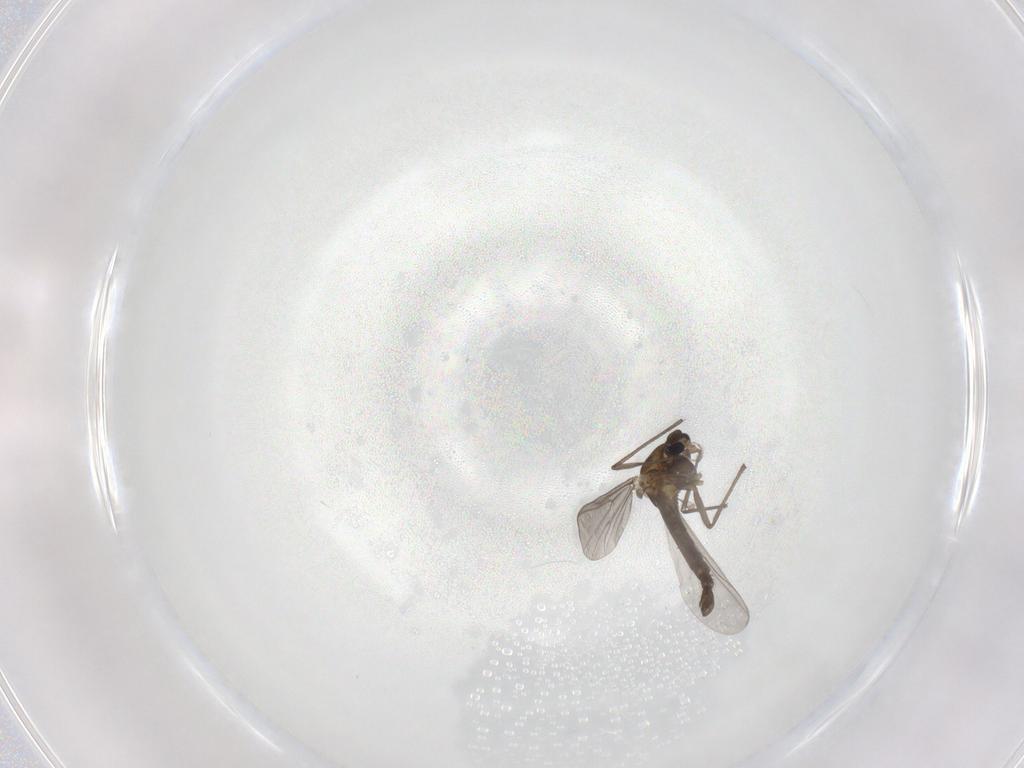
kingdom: Animalia
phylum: Arthropoda
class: Insecta
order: Diptera
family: Chironomidae
